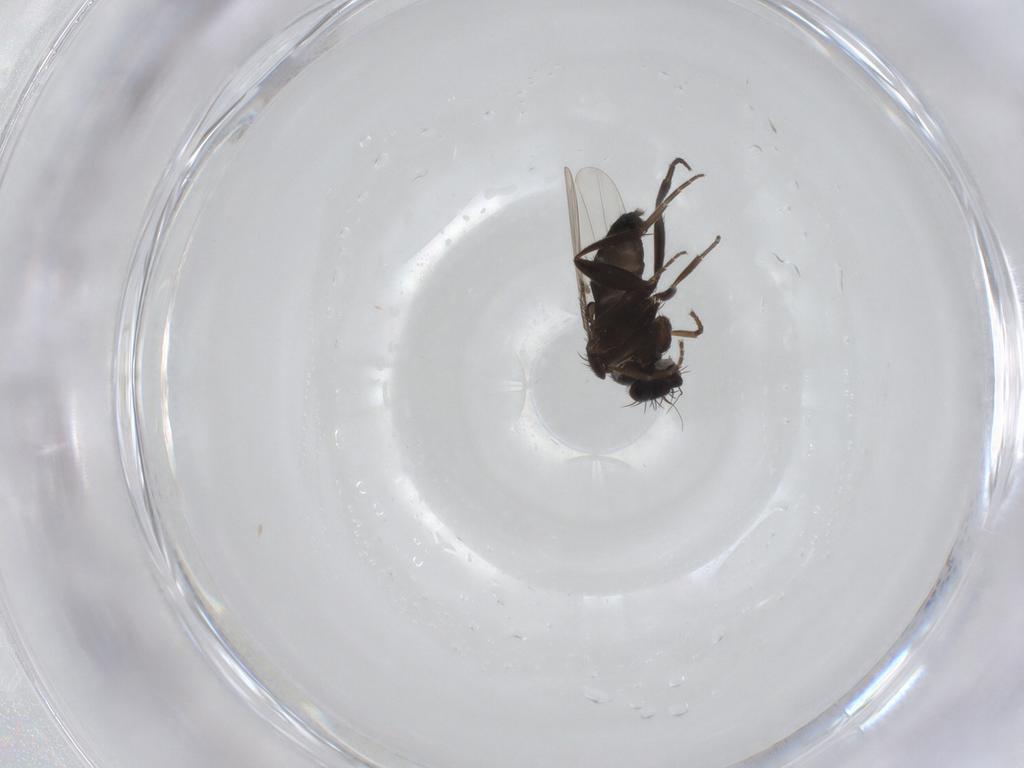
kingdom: Animalia
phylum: Arthropoda
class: Insecta
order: Diptera
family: Phoridae
